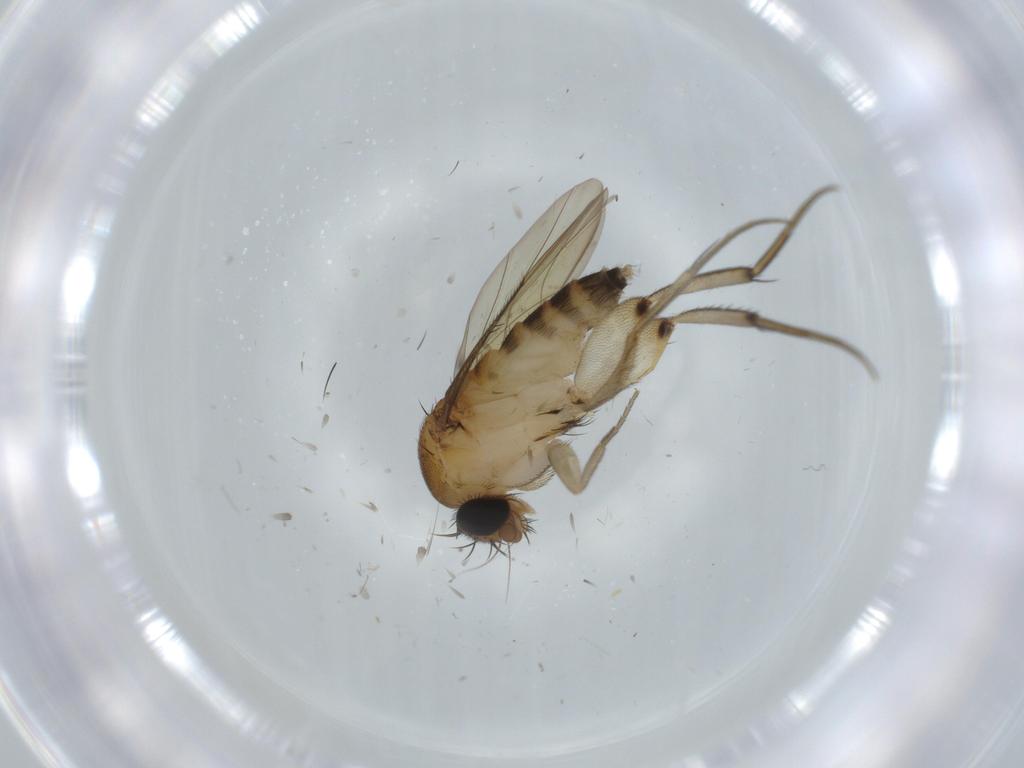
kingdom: Animalia
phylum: Arthropoda
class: Insecta
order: Diptera
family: Phoridae
